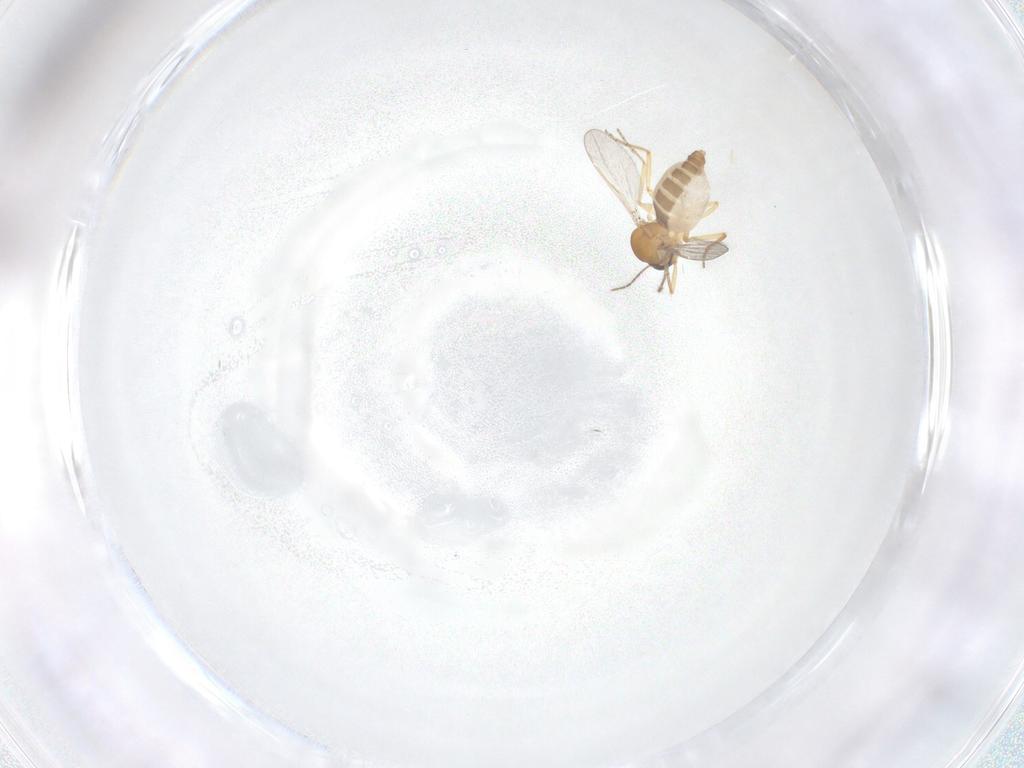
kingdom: Animalia
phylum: Arthropoda
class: Insecta
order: Diptera
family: Ceratopogonidae
